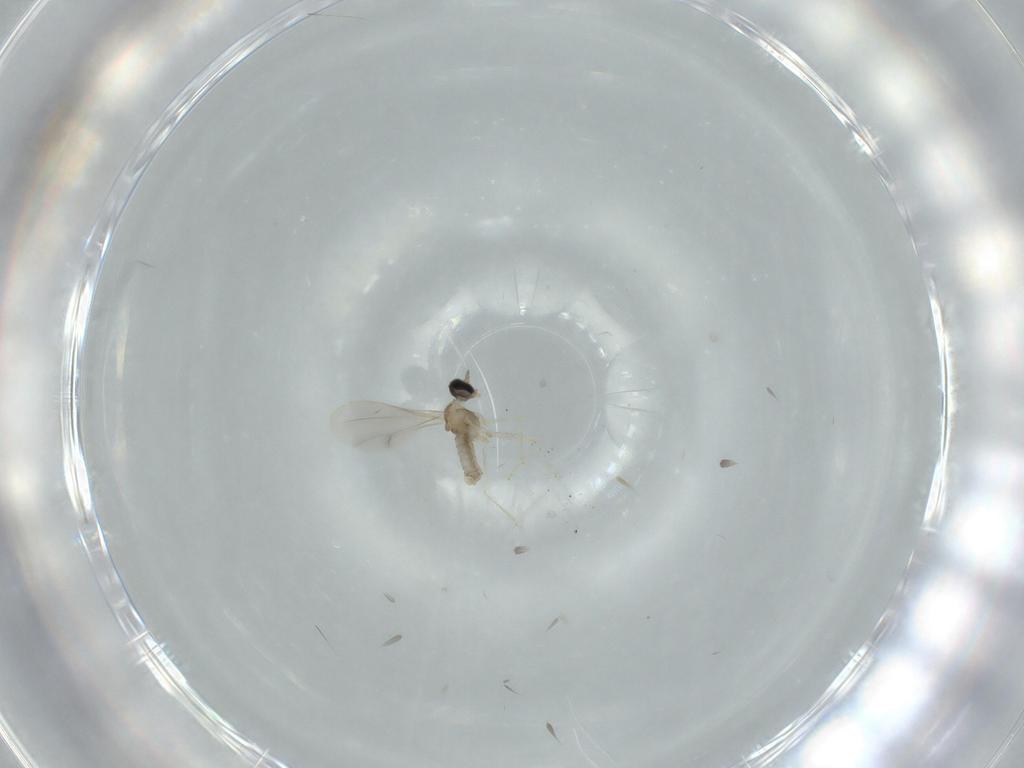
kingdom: Animalia
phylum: Arthropoda
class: Insecta
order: Diptera
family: Cecidomyiidae
